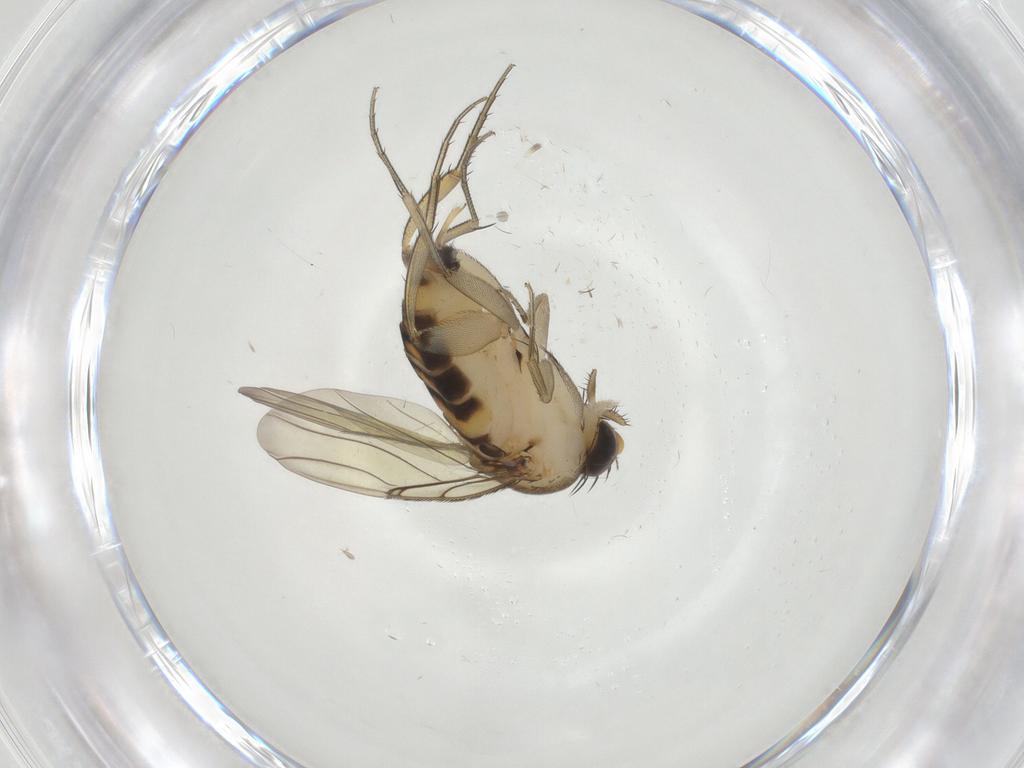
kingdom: Animalia
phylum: Arthropoda
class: Insecta
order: Diptera
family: Phoridae
